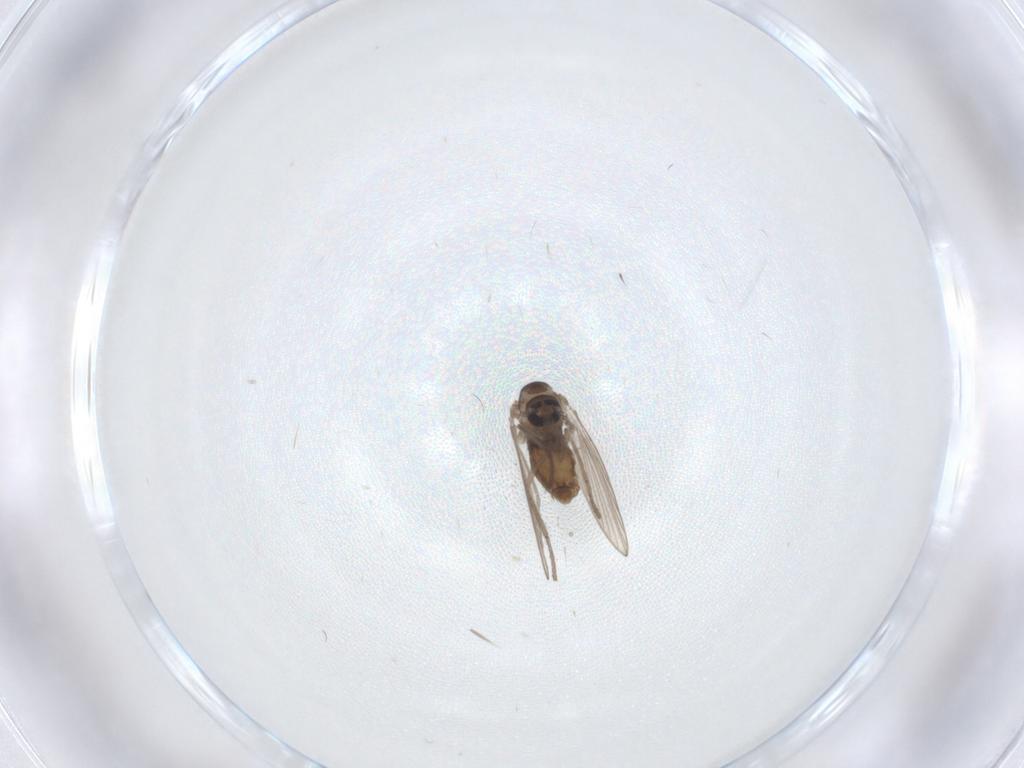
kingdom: Animalia
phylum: Arthropoda
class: Insecta
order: Diptera
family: Psychodidae
